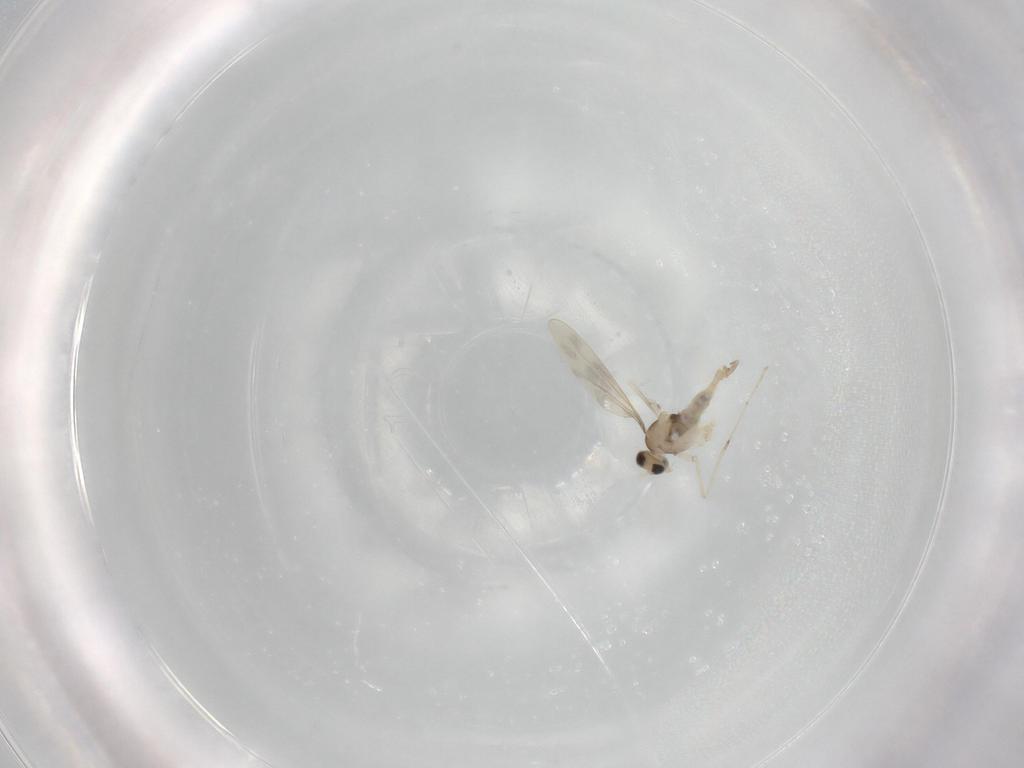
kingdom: Animalia
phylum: Arthropoda
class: Insecta
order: Diptera
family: Cecidomyiidae
